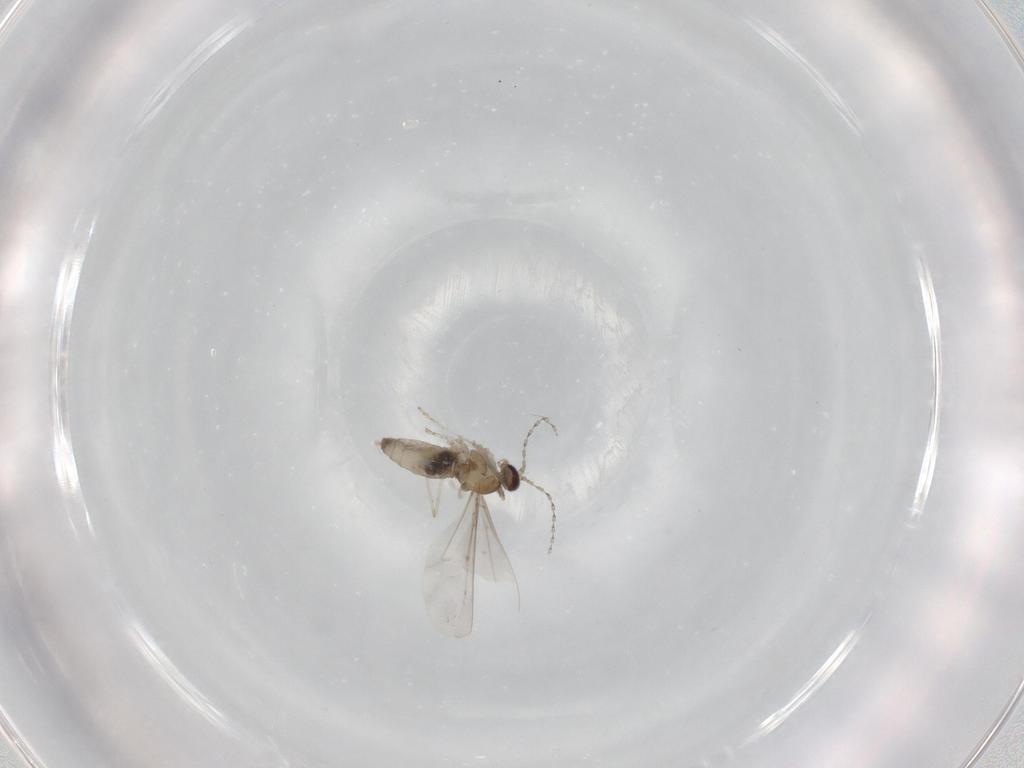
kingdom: Animalia
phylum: Arthropoda
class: Insecta
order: Diptera
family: Cecidomyiidae
